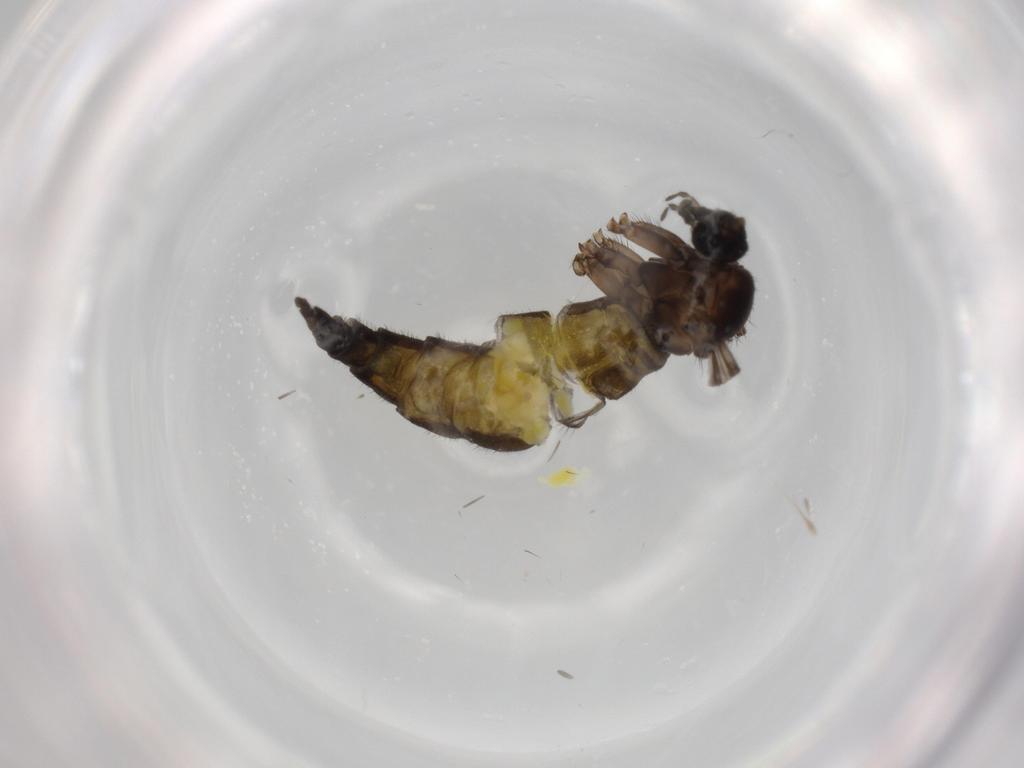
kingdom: Animalia
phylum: Arthropoda
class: Insecta
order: Diptera
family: Sciaridae
